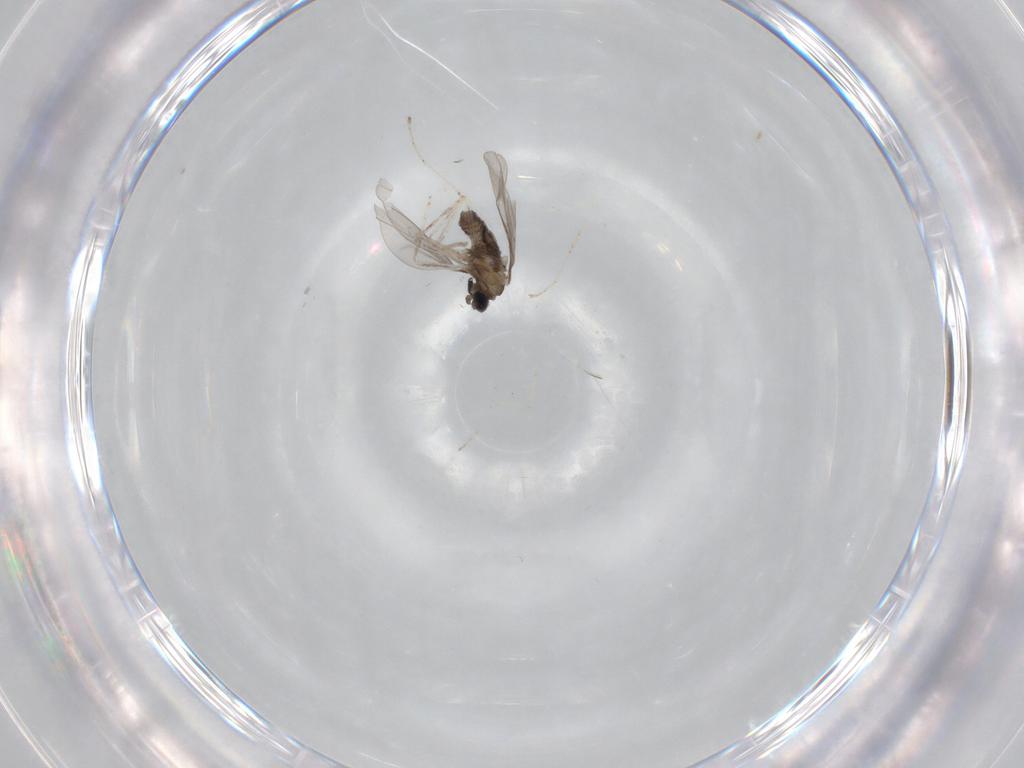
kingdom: Animalia
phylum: Arthropoda
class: Insecta
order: Diptera
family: Cecidomyiidae
